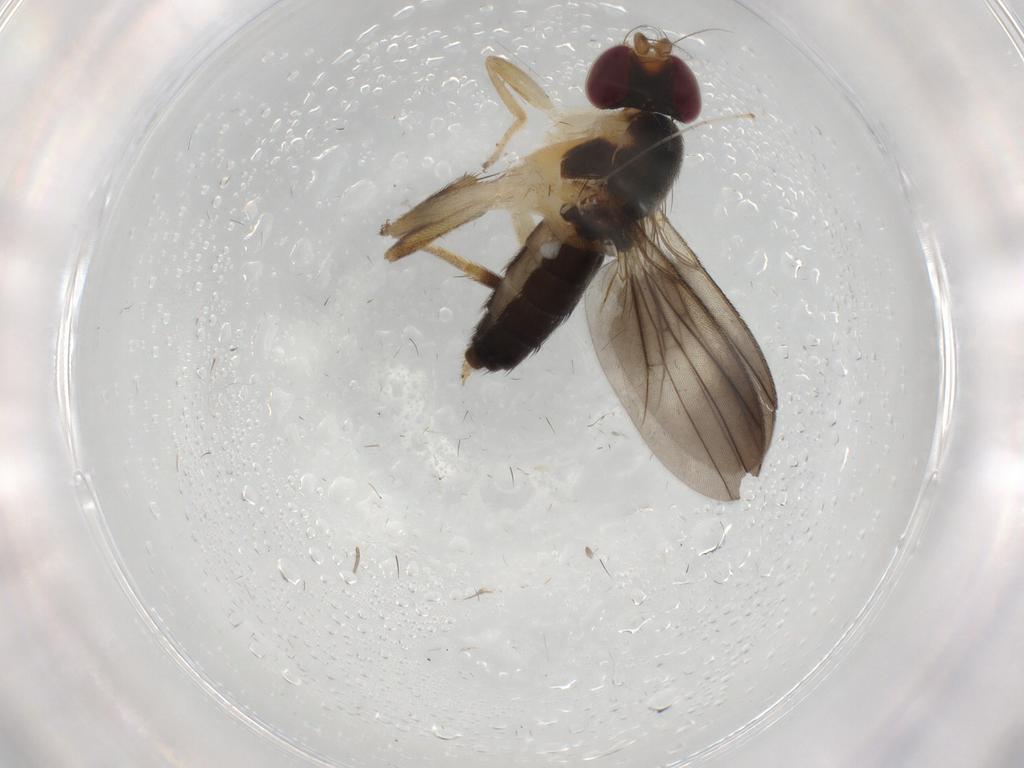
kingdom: Animalia
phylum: Arthropoda
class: Insecta
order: Diptera
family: Clusiidae
